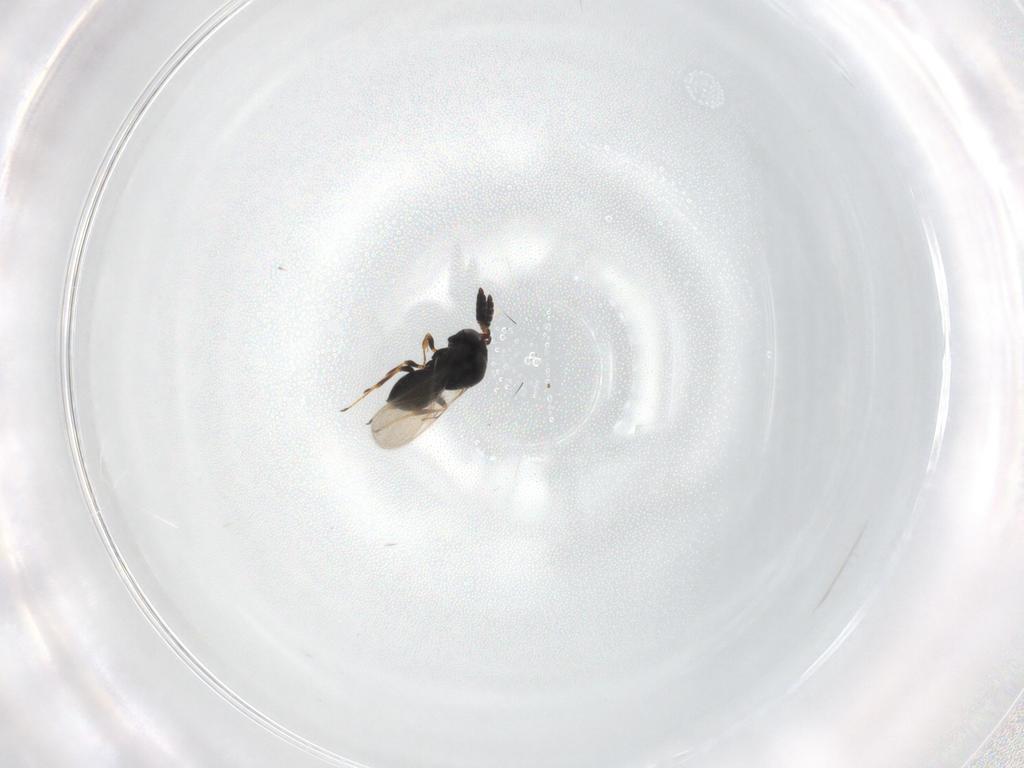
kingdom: Animalia
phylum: Arthropoda
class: Insecta
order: Hymenoptera
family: Scelionidae
